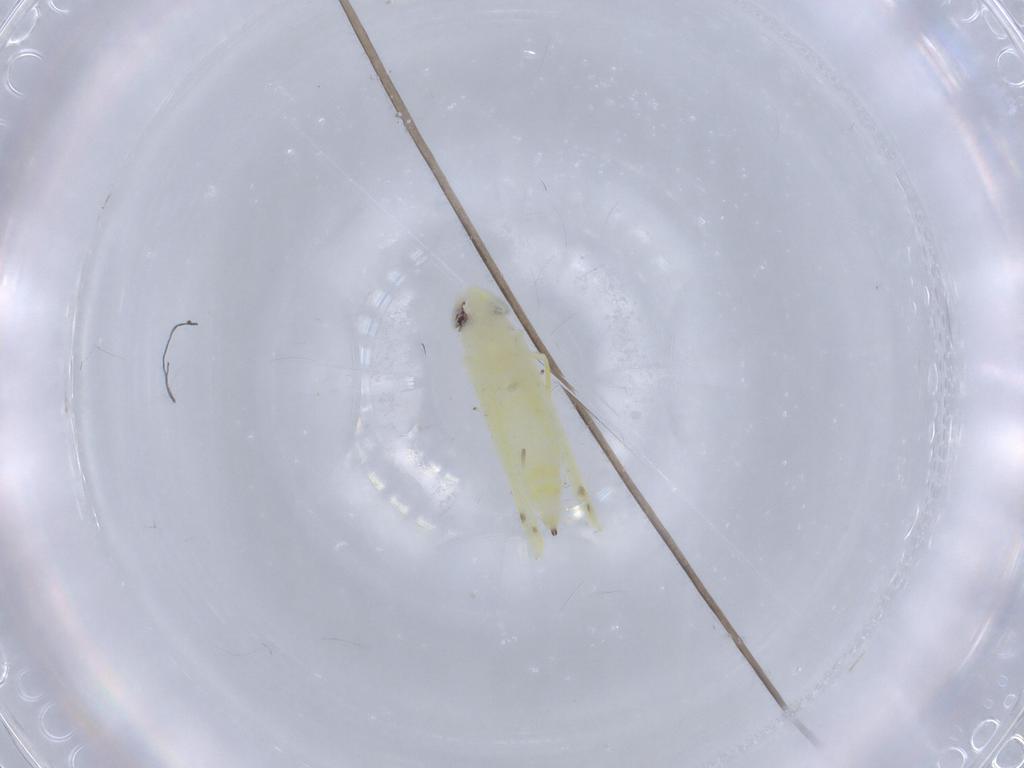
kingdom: Animalia
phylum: Arthropoda
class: Insecta
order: Hemiptera
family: Cicadellidae
